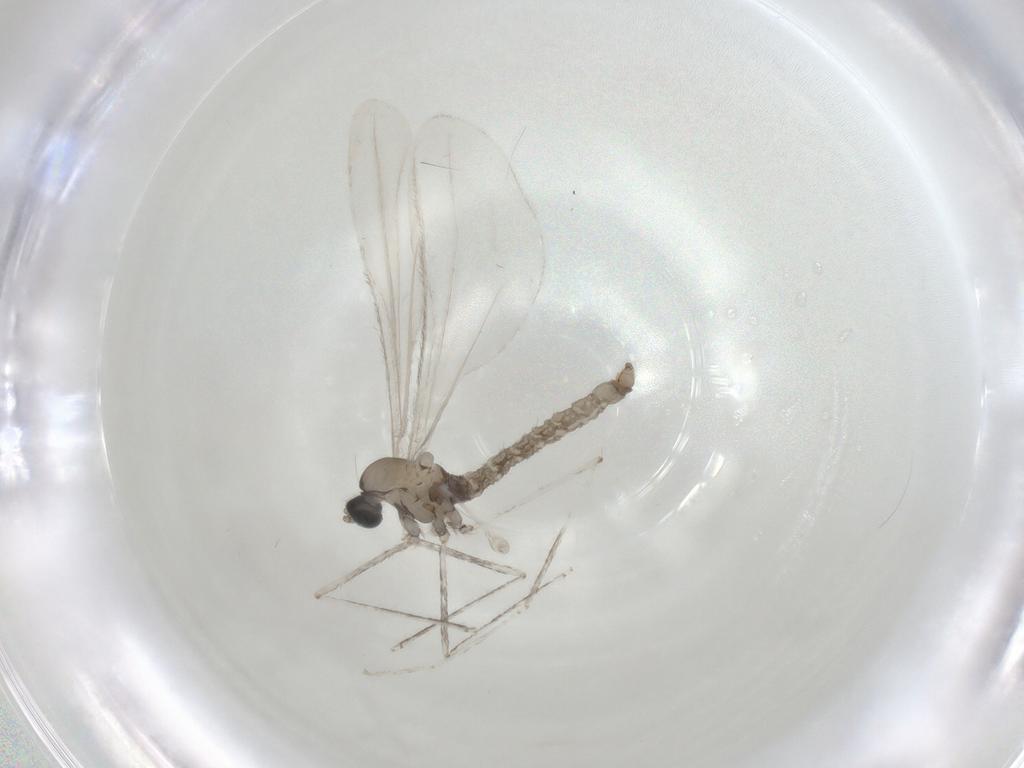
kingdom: Animalia
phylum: Arthropoda
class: Insecta
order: Diptera
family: Cecidomyiidae
